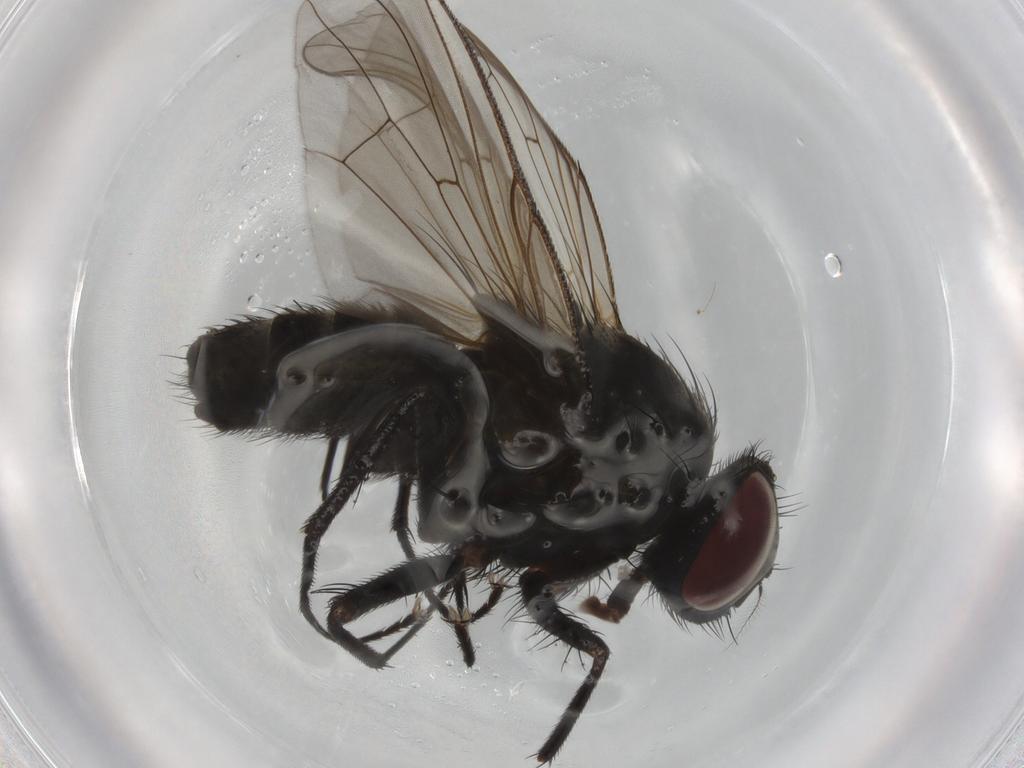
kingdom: Animalia
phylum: Arthropoda
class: Insecta
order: Diptera
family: Muscidae
